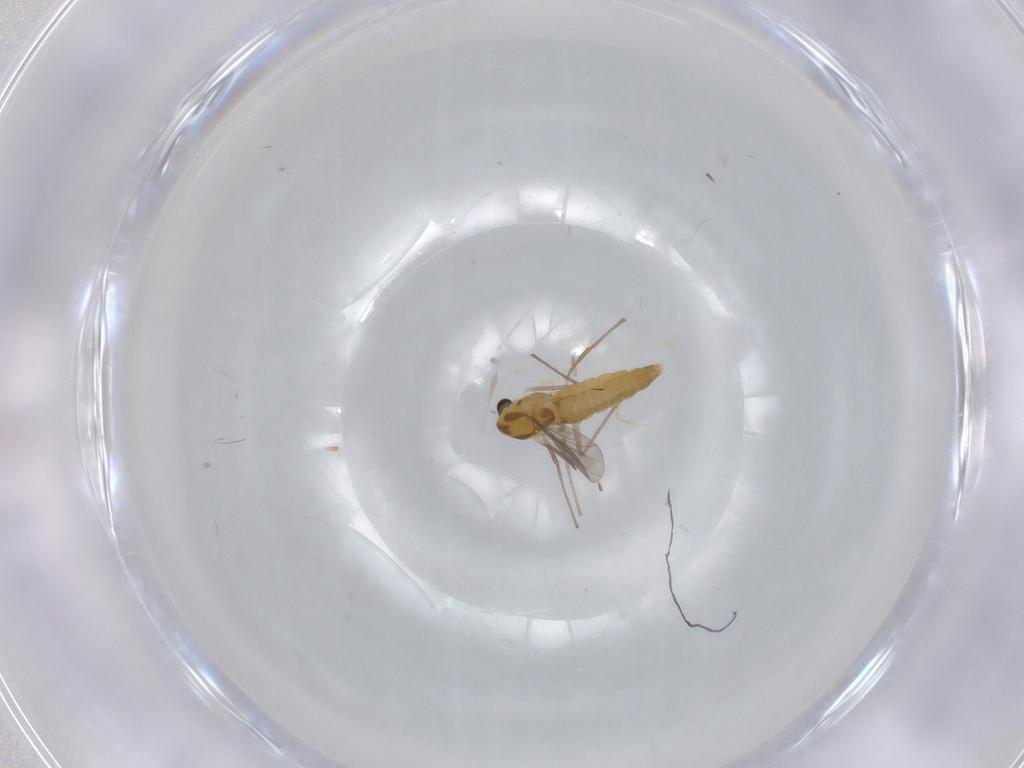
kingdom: Animalia
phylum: Arthropoda
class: Insecta
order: Diptera
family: Chironomidae
